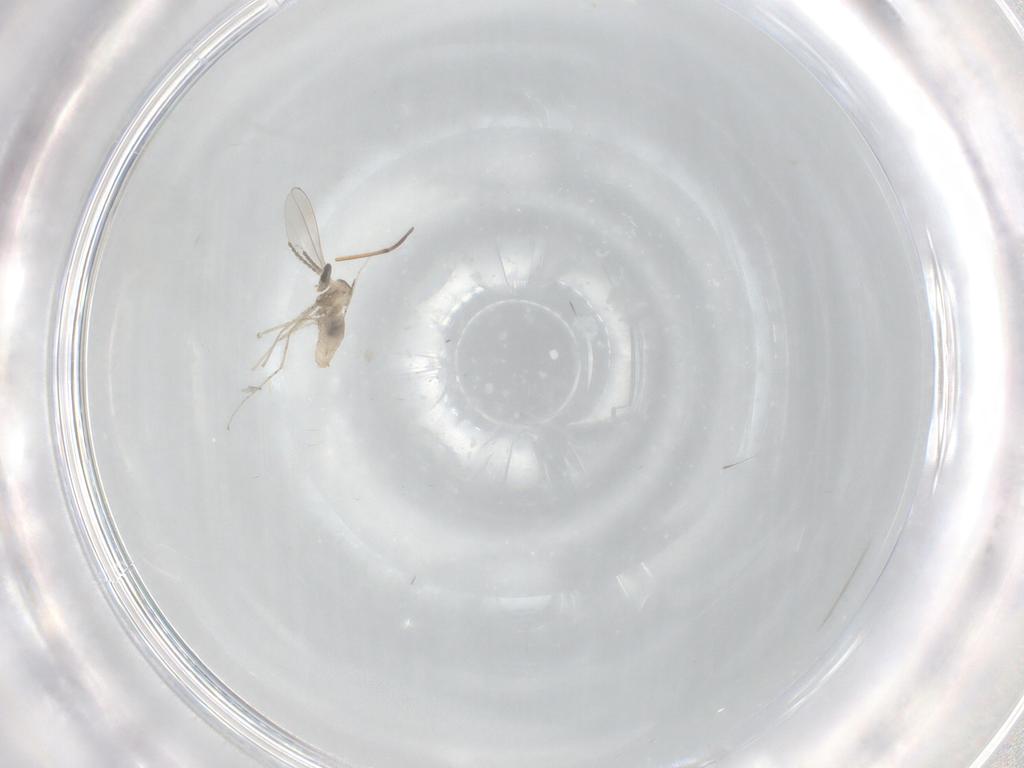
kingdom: Animalia
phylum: Arthropoda
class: Insecta
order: Diptera
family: Cecidomyiidae
